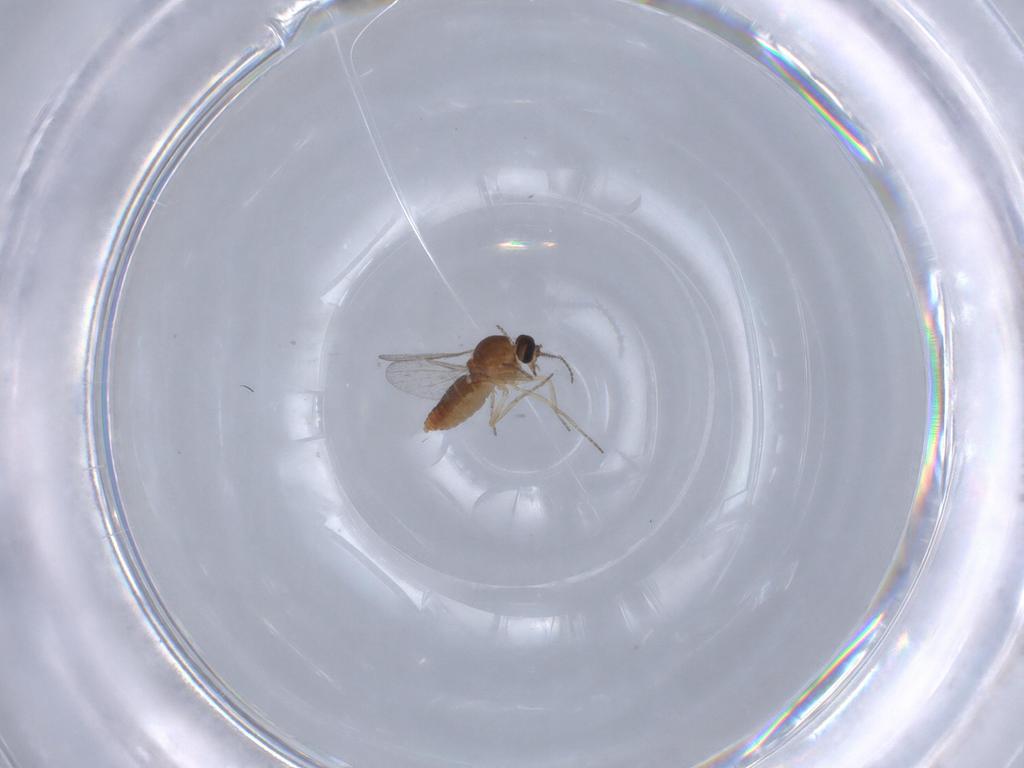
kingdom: Animalia
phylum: Arthropoda
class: Insecta
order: Diptera
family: Ceratopogonidae
